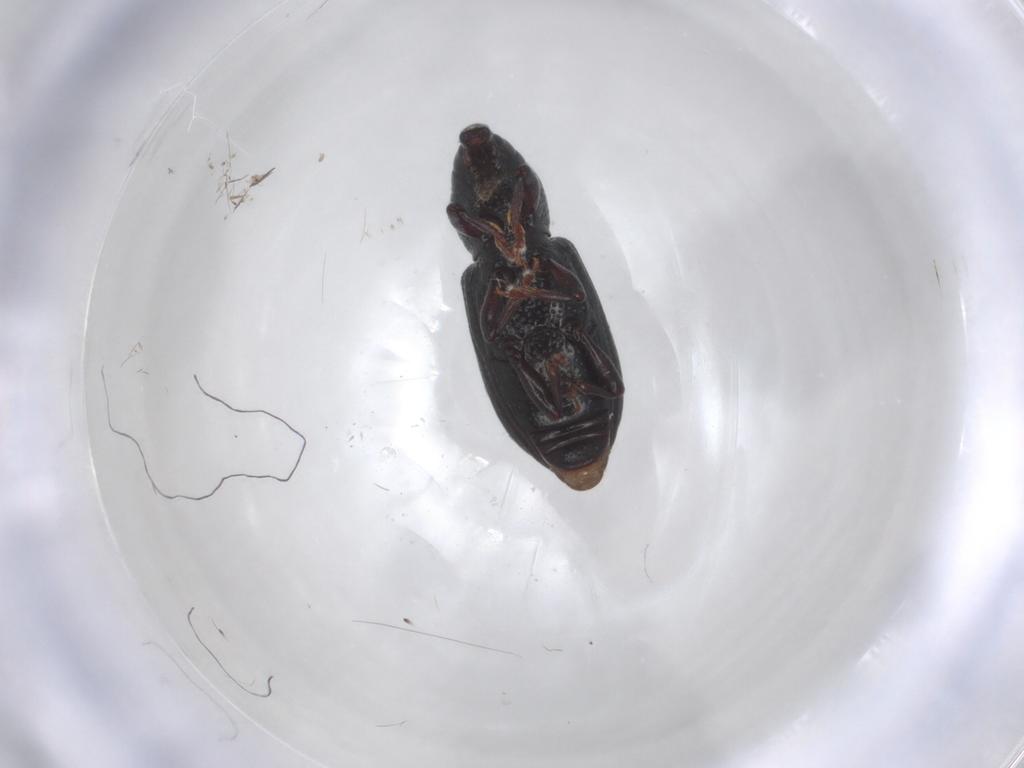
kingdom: Animalia
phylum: Arthropoda
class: Insecta
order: Coleoptera
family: Curculionidae
